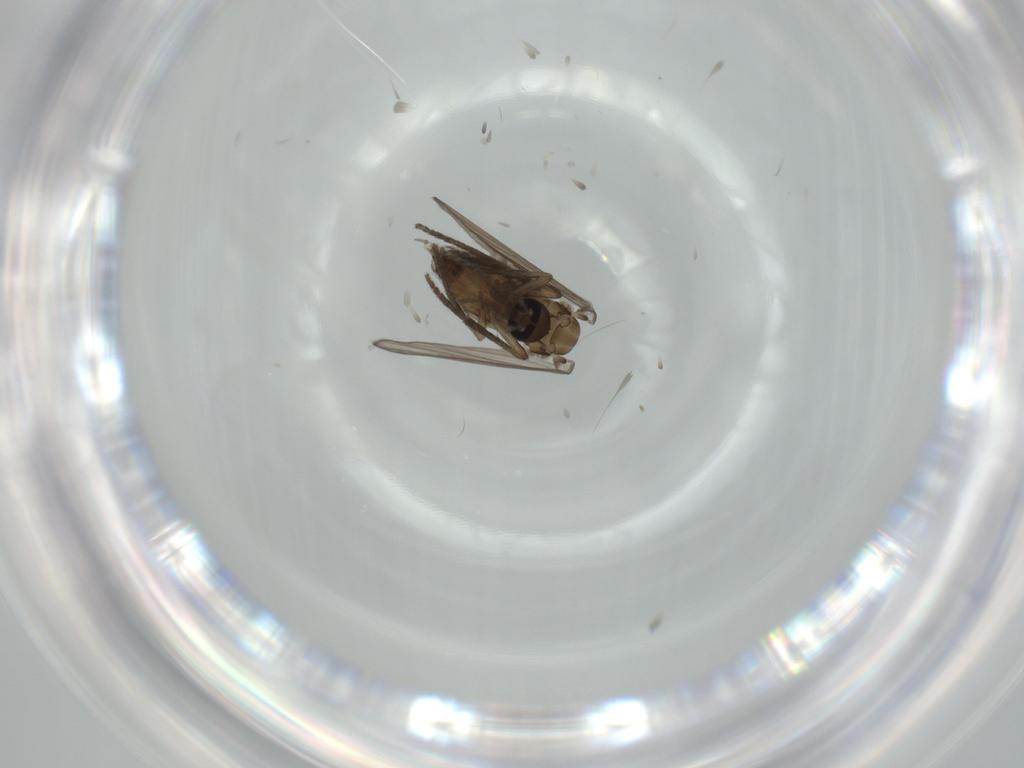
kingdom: Animalia
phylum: Arthropoda
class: Insecta
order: Diptera
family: Psychodidae
